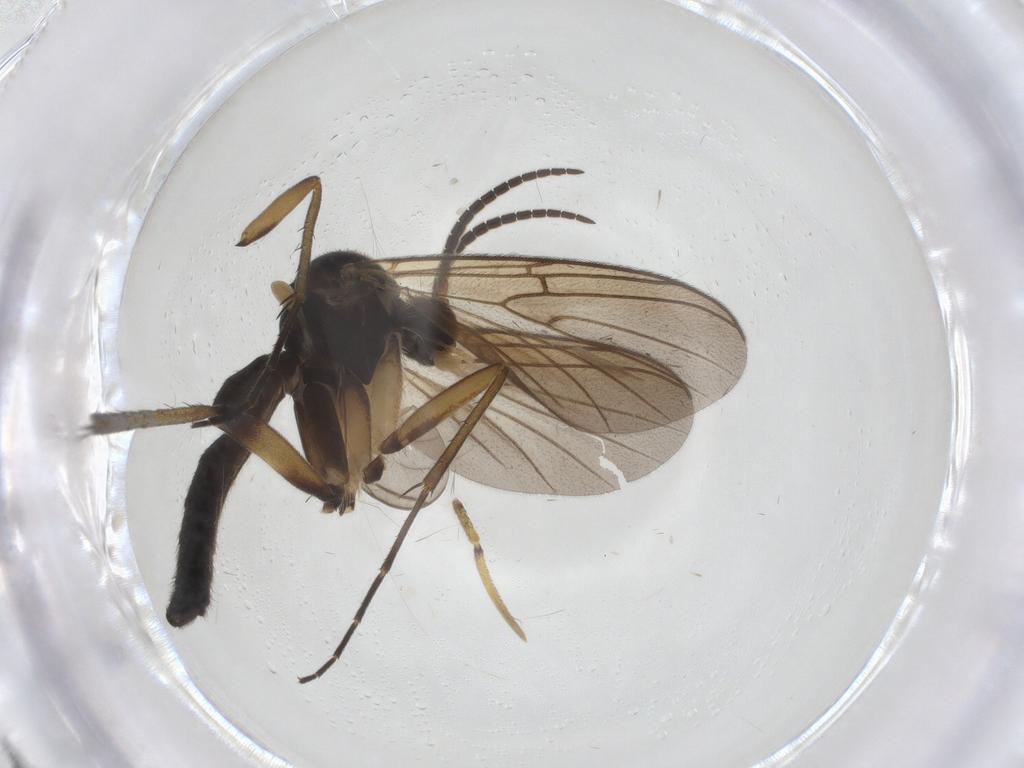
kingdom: Animalia
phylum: Arthropoda
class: Insecta
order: Diptera
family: Mycetophilidae
